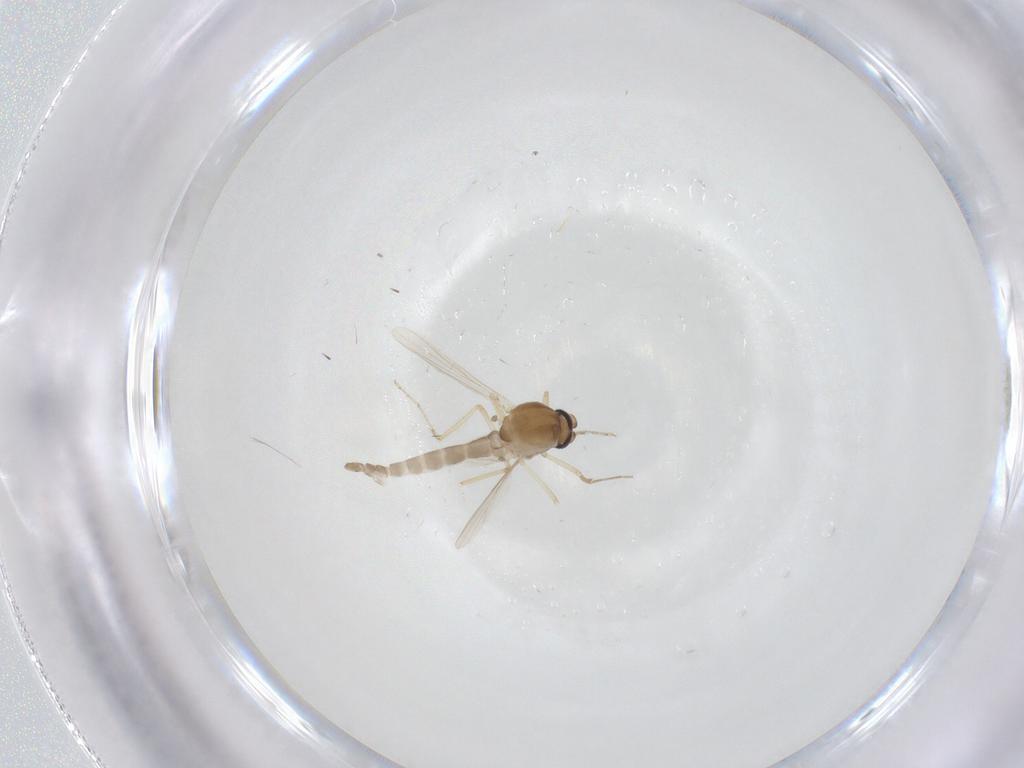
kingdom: Animalia
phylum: Arthropoda
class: Insecta
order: Diptera
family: Ceratopogonidae
